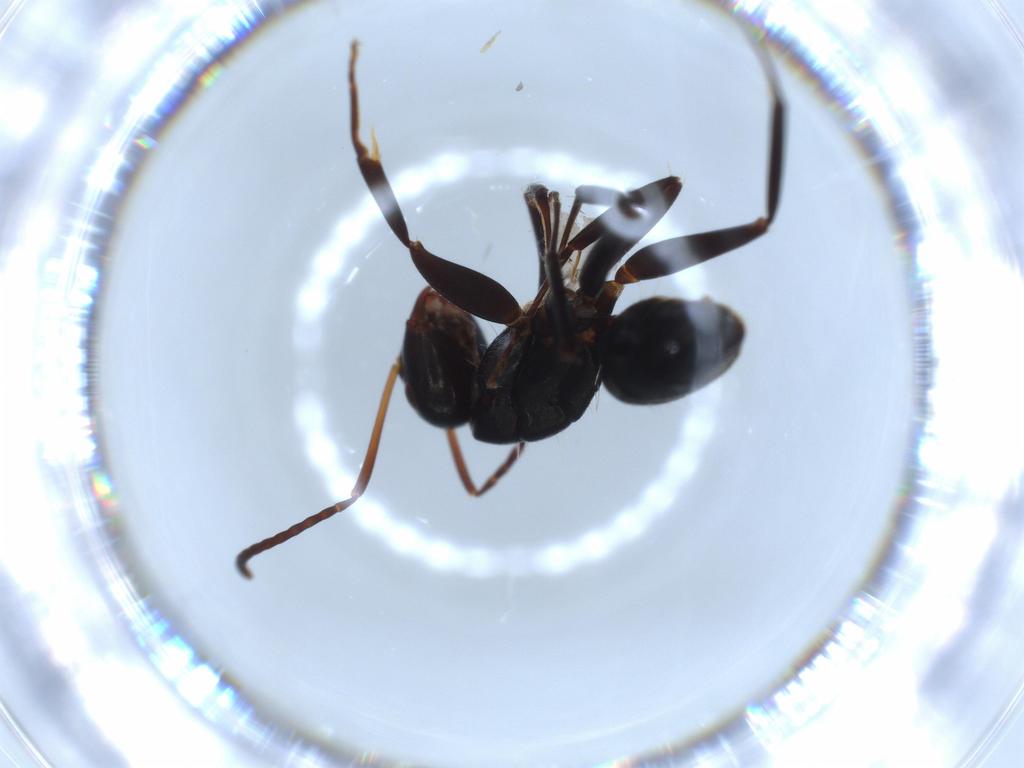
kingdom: Animalia
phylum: Arthropoda
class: Insecta
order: Hymenoptera
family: Formicidae
